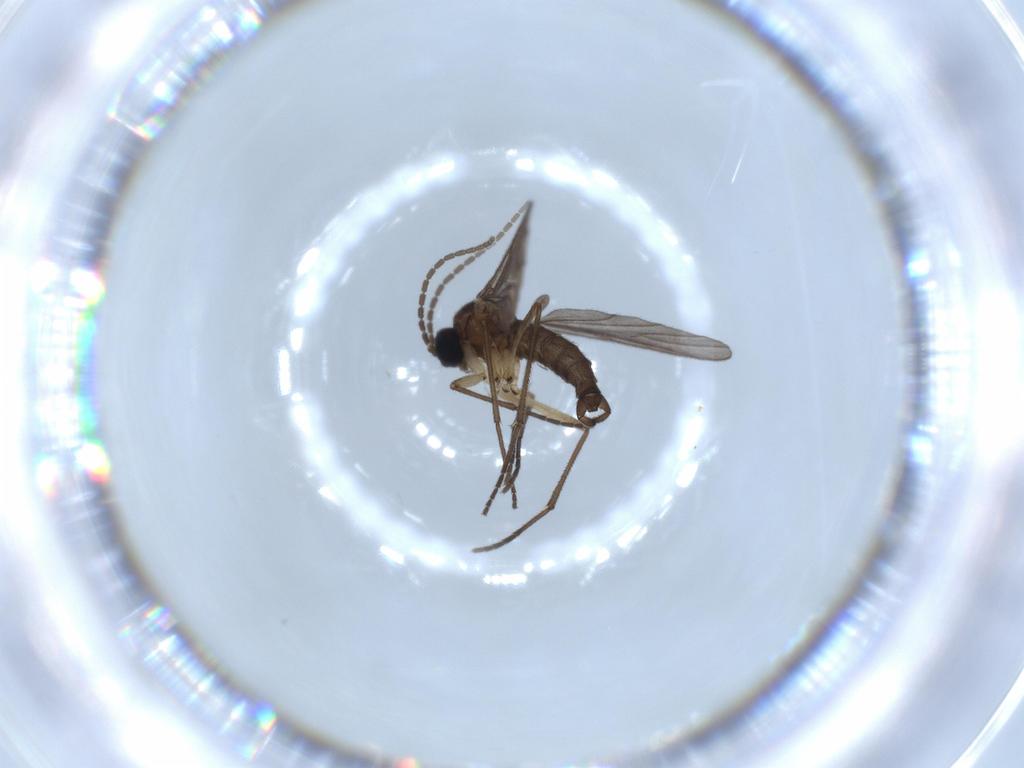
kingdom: Animalia
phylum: Arthropoda
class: Insecta
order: Diptera
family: Sciaridae
